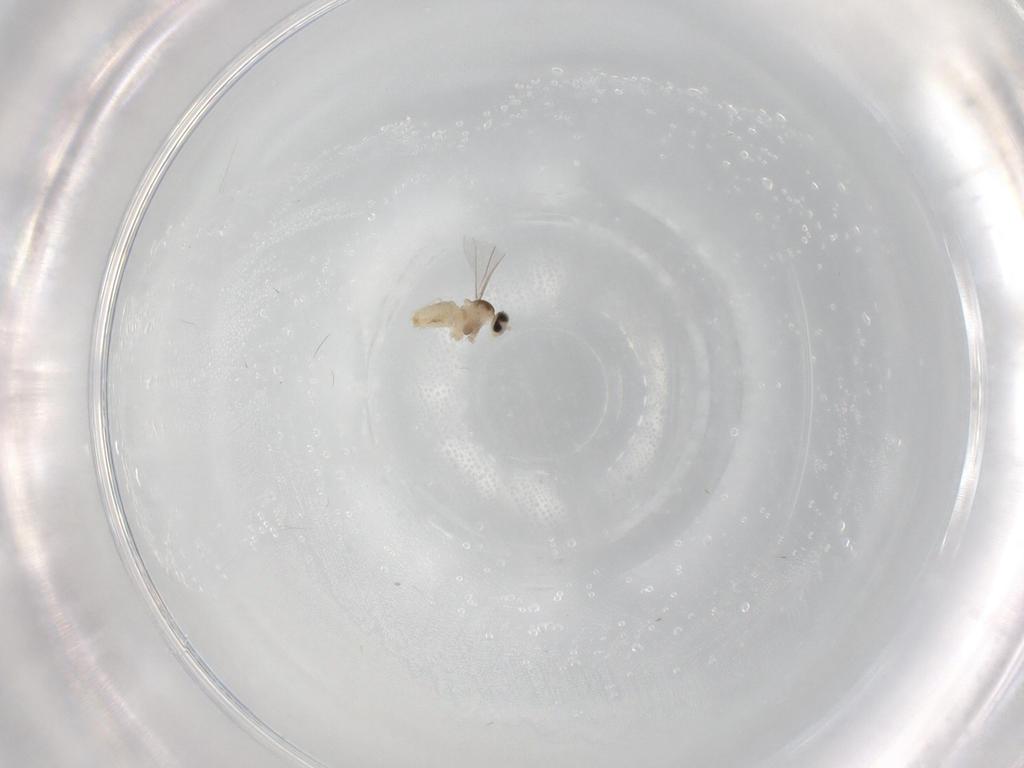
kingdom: Animalia
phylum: Arthropoda
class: Insecta
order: Diptera
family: Cecidomyiidae
